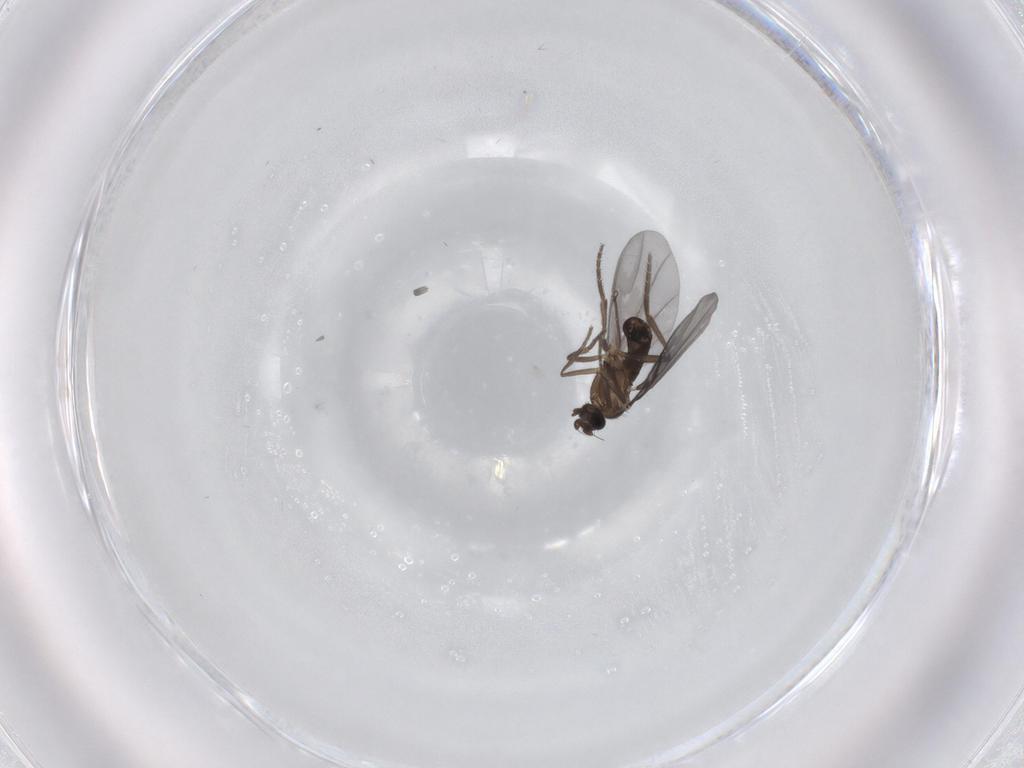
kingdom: Animalia
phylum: Arthropoda
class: Insecta
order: Diptera
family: Phoridae
